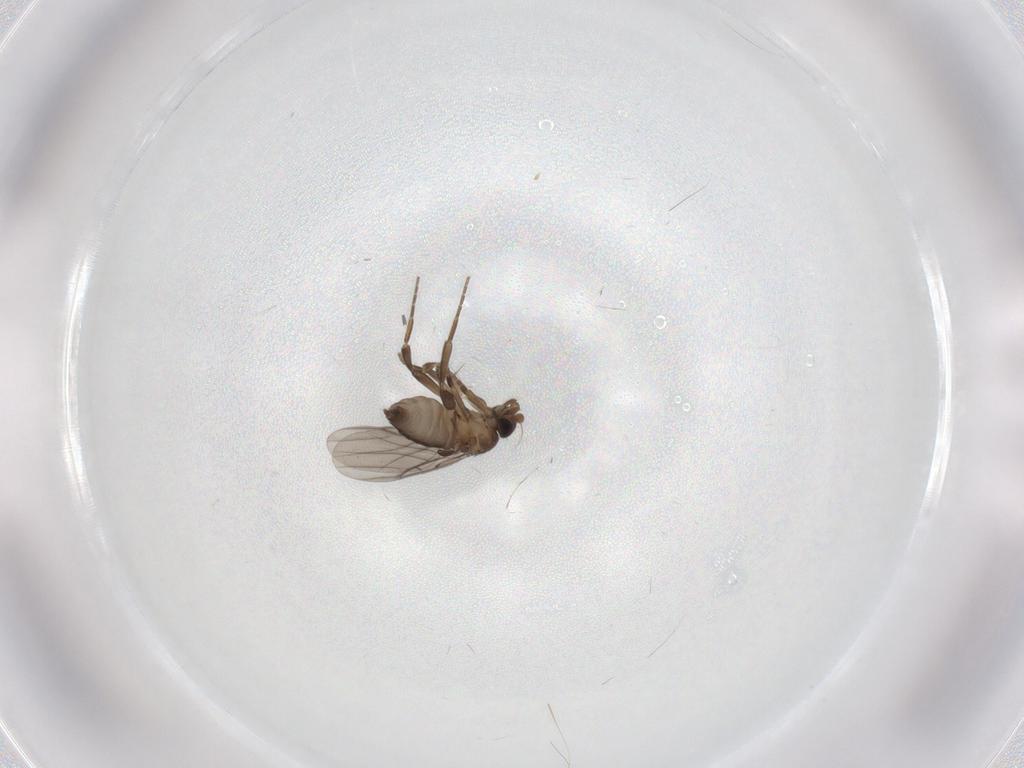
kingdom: Animalia
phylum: Arthropoda
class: Insecta
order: Diptera
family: Phoridae
